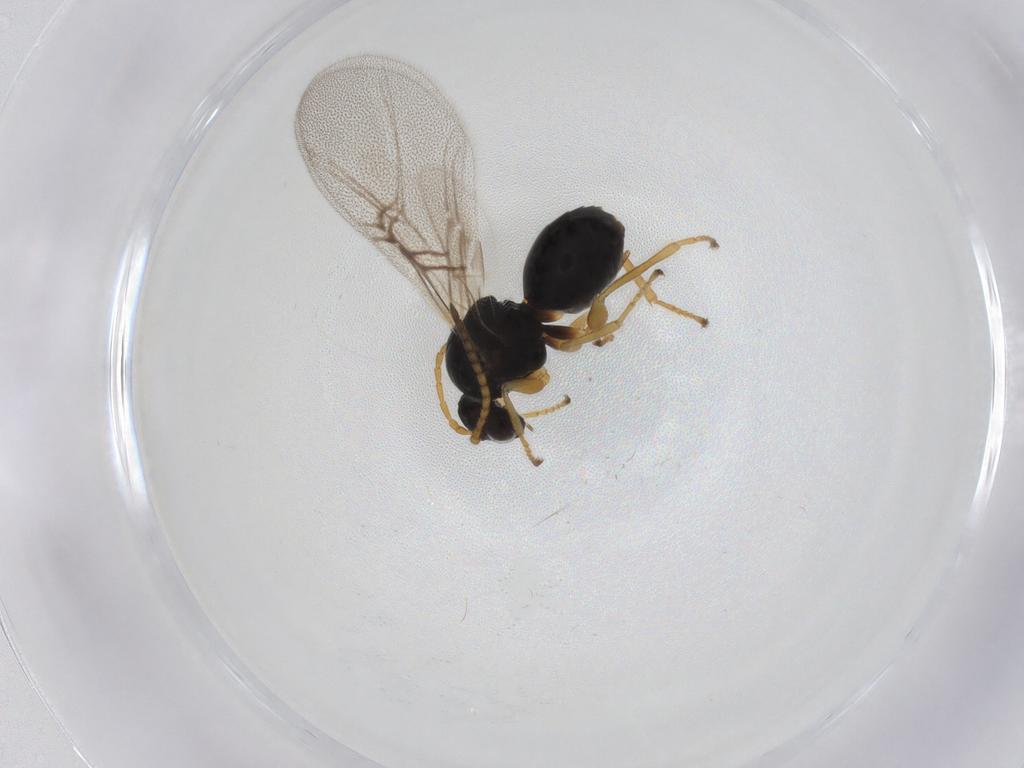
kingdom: Animalia
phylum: Arthropoda
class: Insecta
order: Hymenoptera
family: Cynipidae
